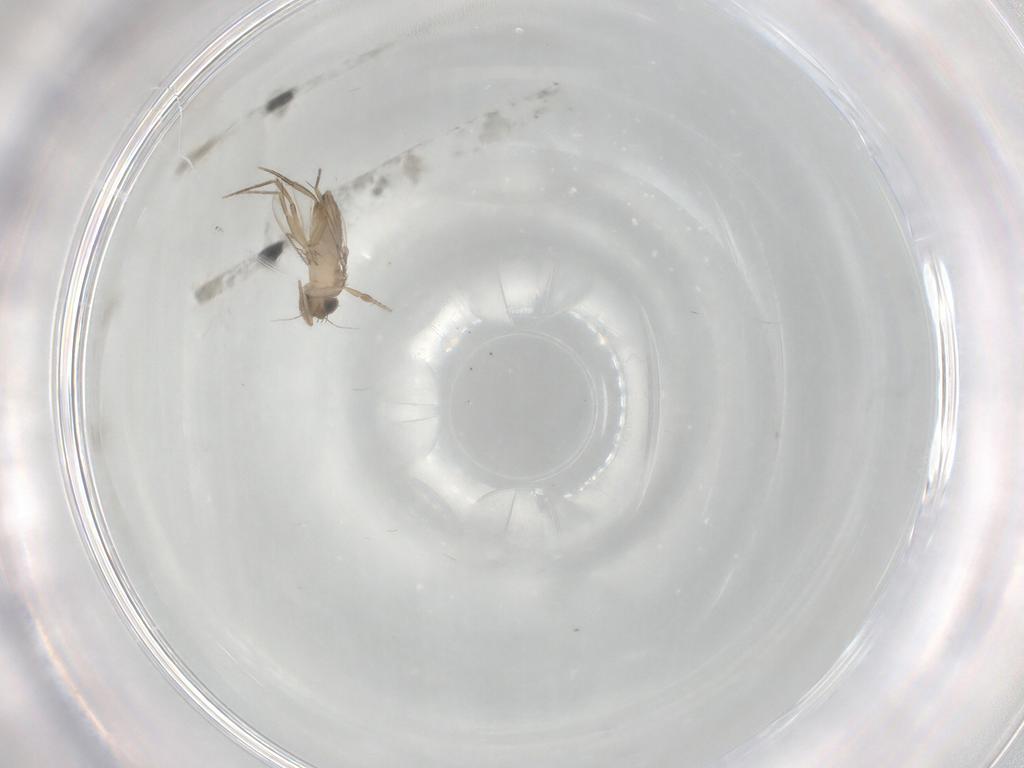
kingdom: Animalia
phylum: Arthropoda
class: Insecta
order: Diptera
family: Phoridae
